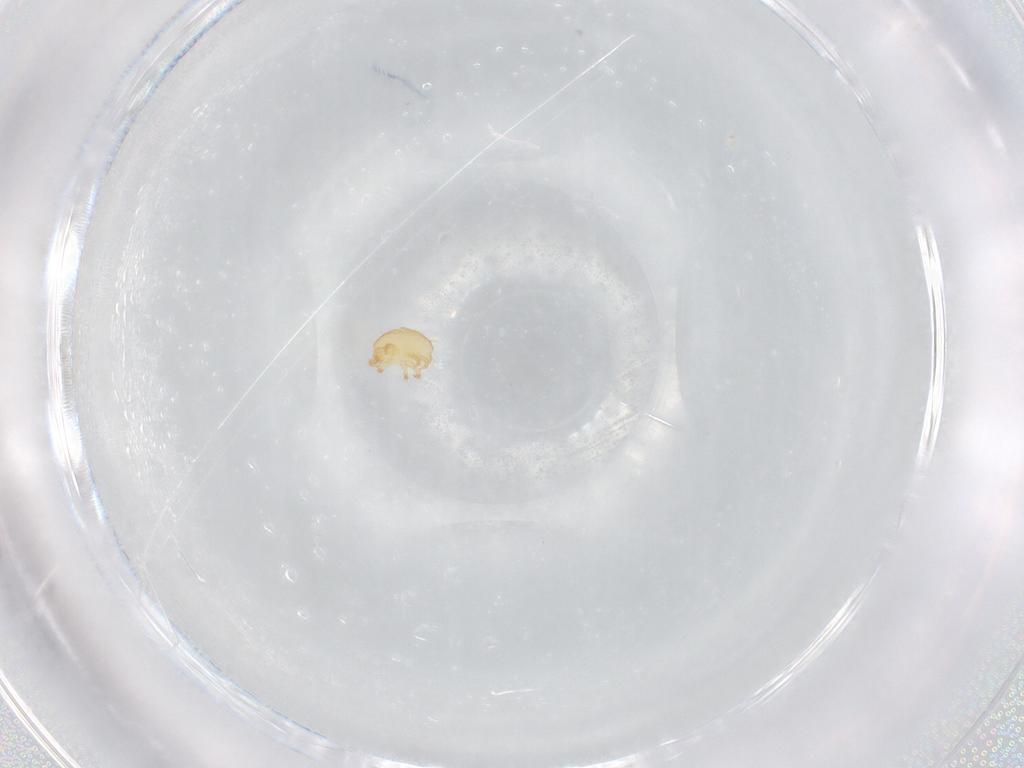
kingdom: Animalia
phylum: Arthropoda
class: Arachnida
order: Trombidiformes
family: Stigmaeidae
